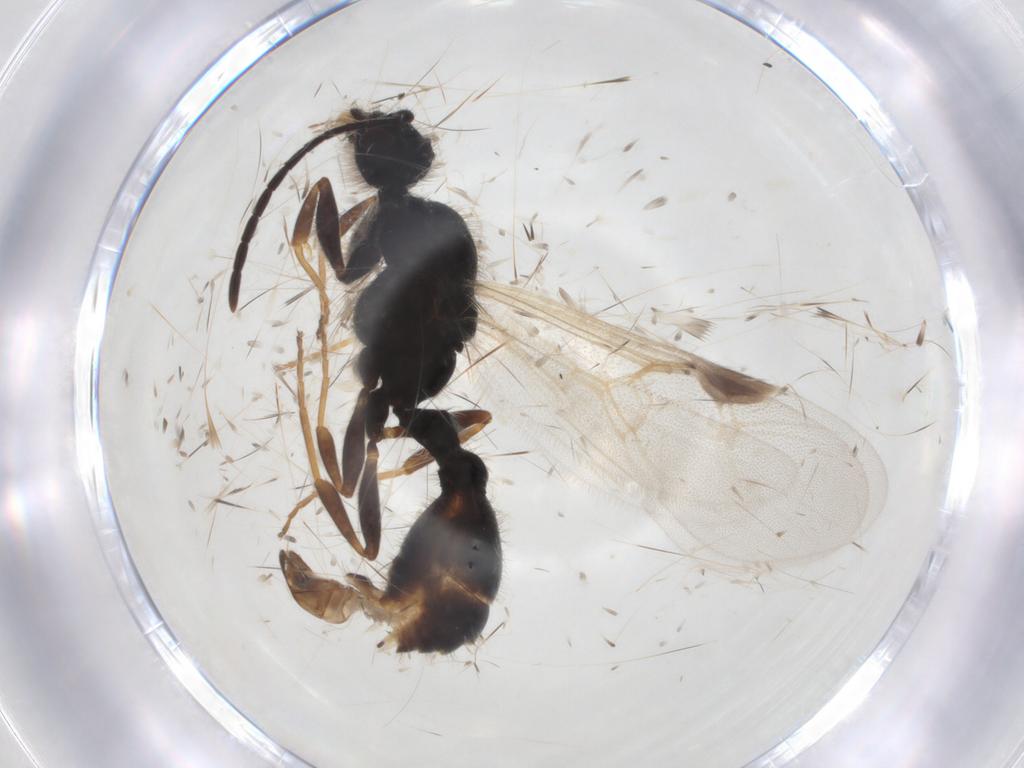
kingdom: Animalia
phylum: Arthropoda
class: Insecta
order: Hymenoptera
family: Formicidae
